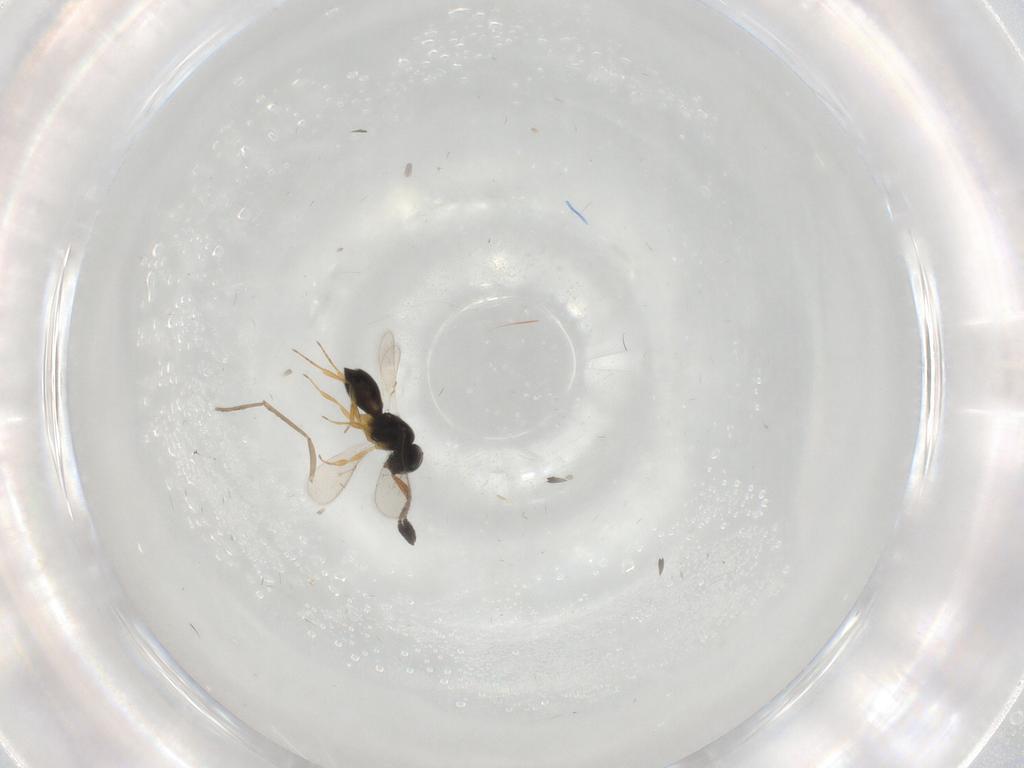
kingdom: Animalia
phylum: Arthropoda
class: Insecta
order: Hymenoptera
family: Scelionidae
